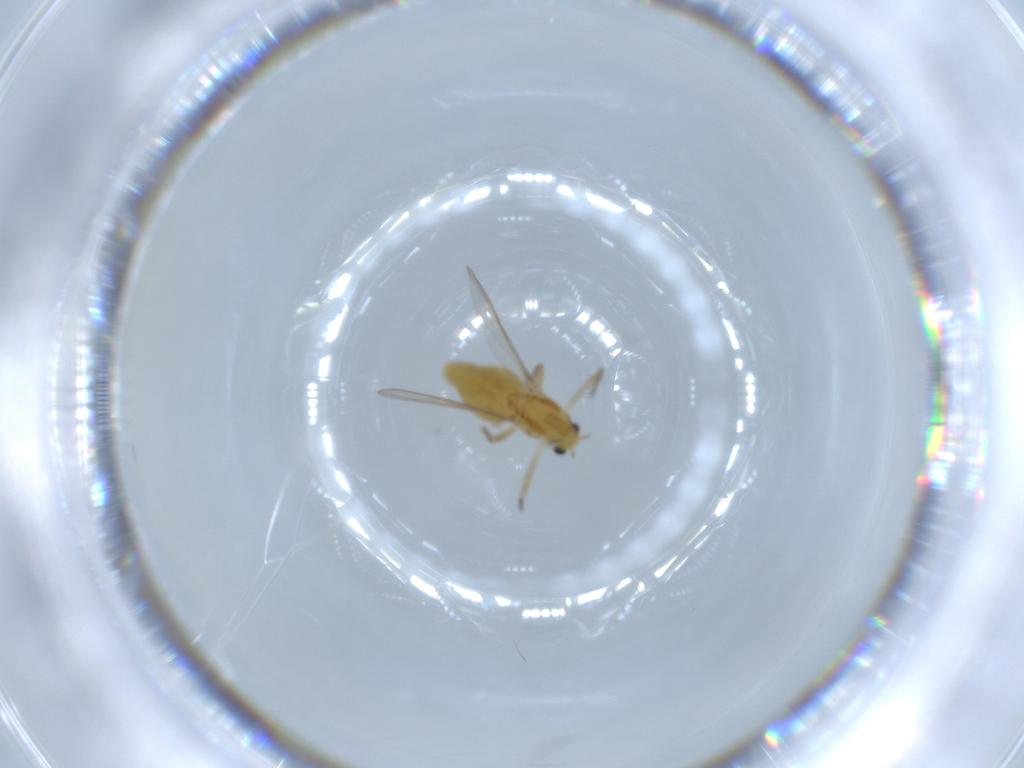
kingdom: Animalia
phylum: Arthropoda
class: Insecta
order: Diptera
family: Chironomidae
